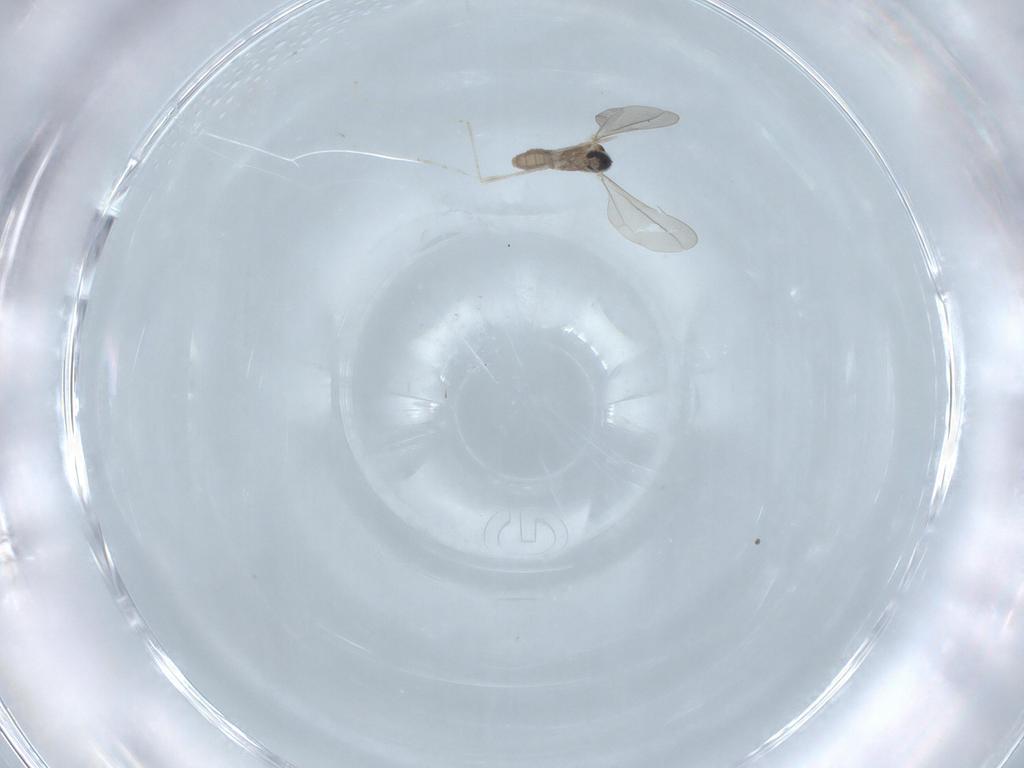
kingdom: Animalia
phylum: Arthropoda
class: Insecta
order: Diptera
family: Cecidomyiidae
